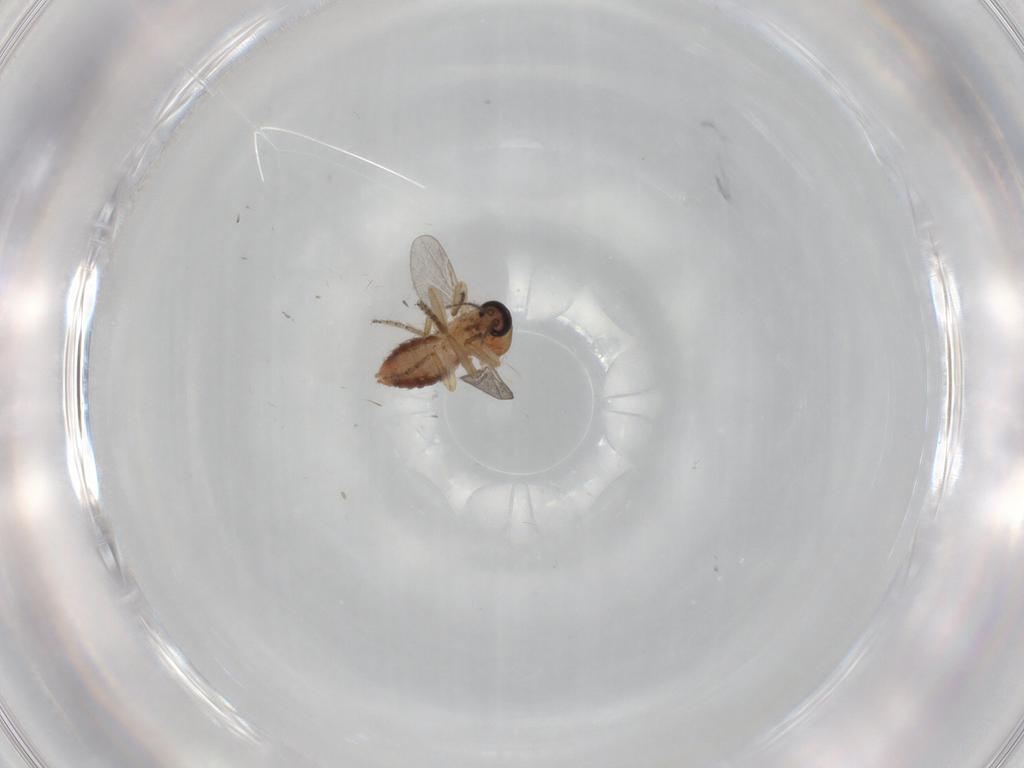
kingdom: Animalia
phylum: Arthropoda
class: Insecta
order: Diptera
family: Ceratopogonidae
